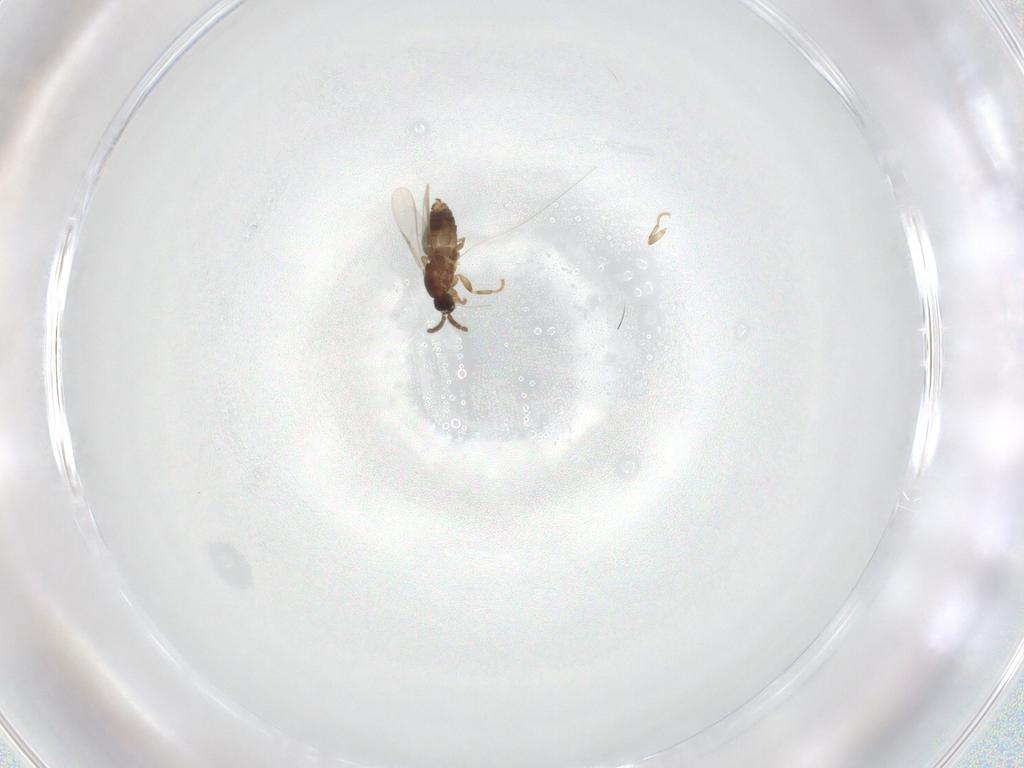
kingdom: Animalia
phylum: Arthropoda
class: Insecta
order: Diptera
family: Scatopsidae
